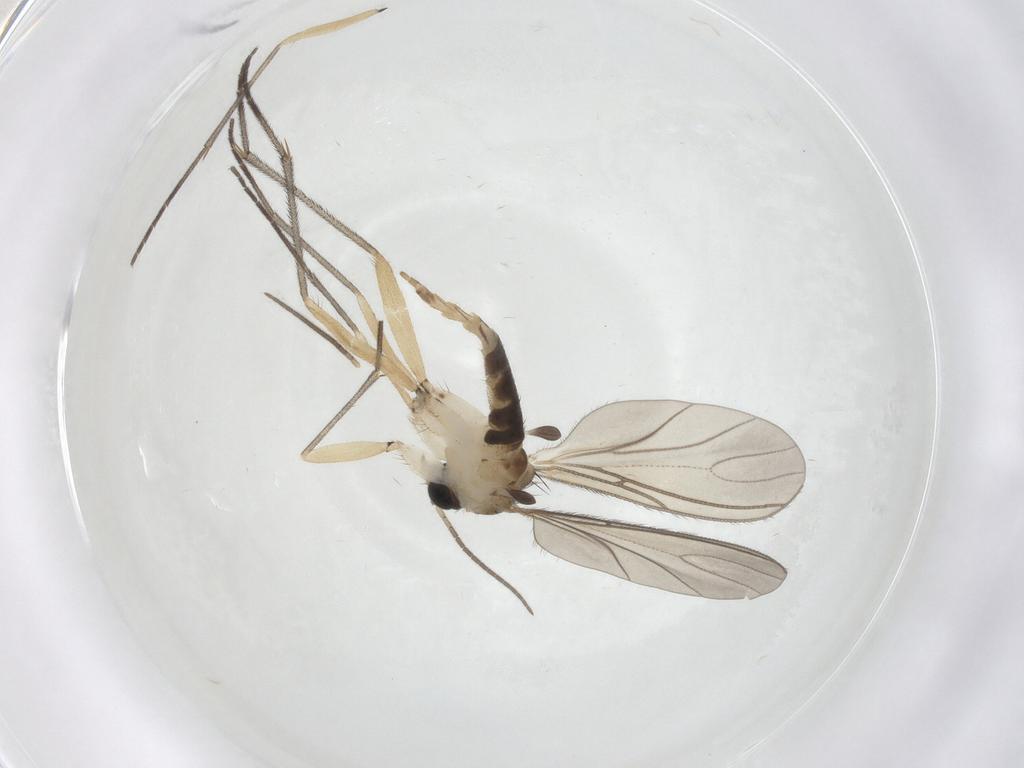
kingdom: Animalia
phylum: Arthropoda
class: Insecta
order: Diptera
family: Sciaridae
